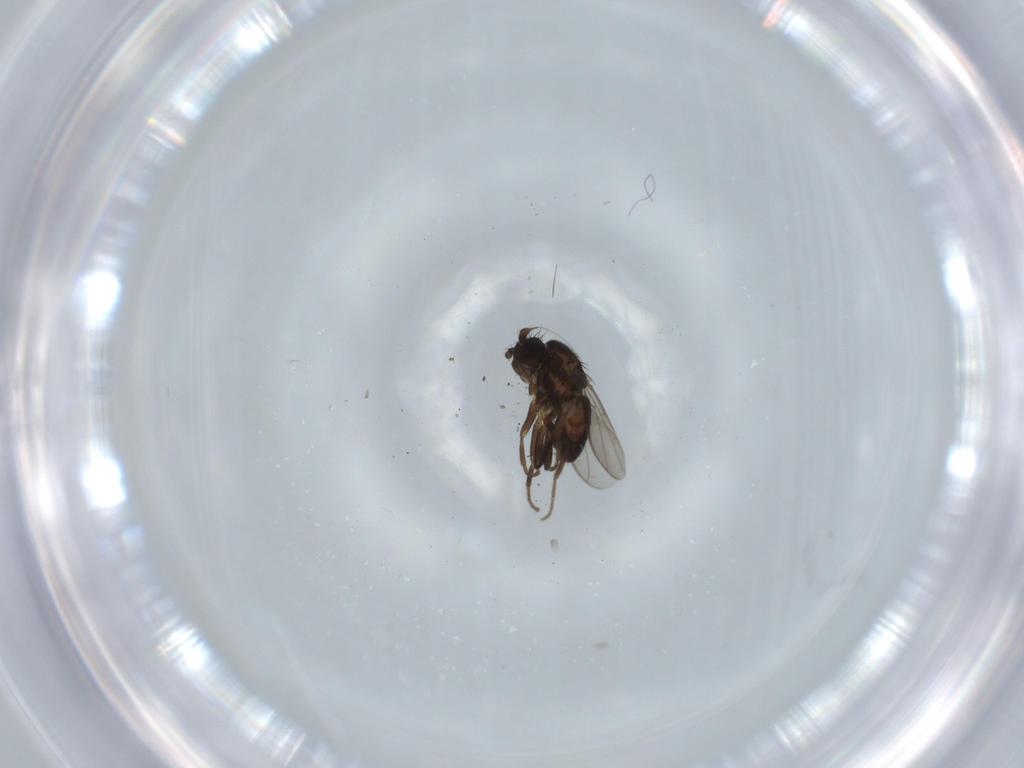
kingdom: Animalia
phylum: Arthropoda
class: Insecta
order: Diptera
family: Sphaeroceridae
